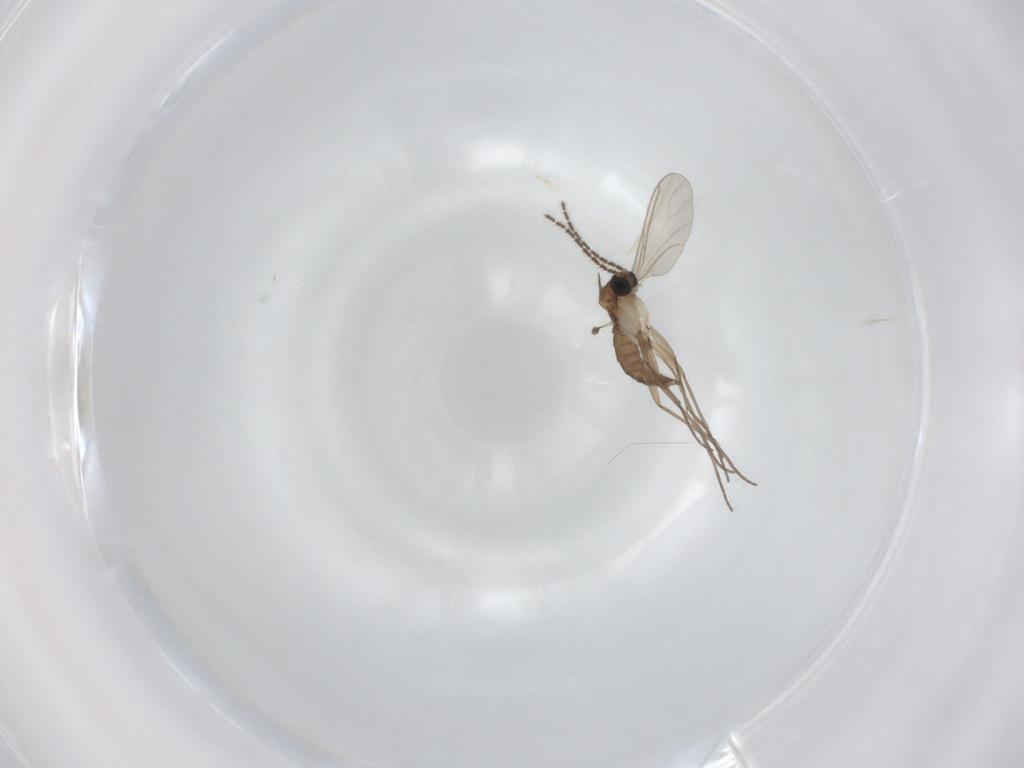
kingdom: Animalia
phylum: Arthropoda
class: Insecta
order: Diptera
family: Sciaridae
